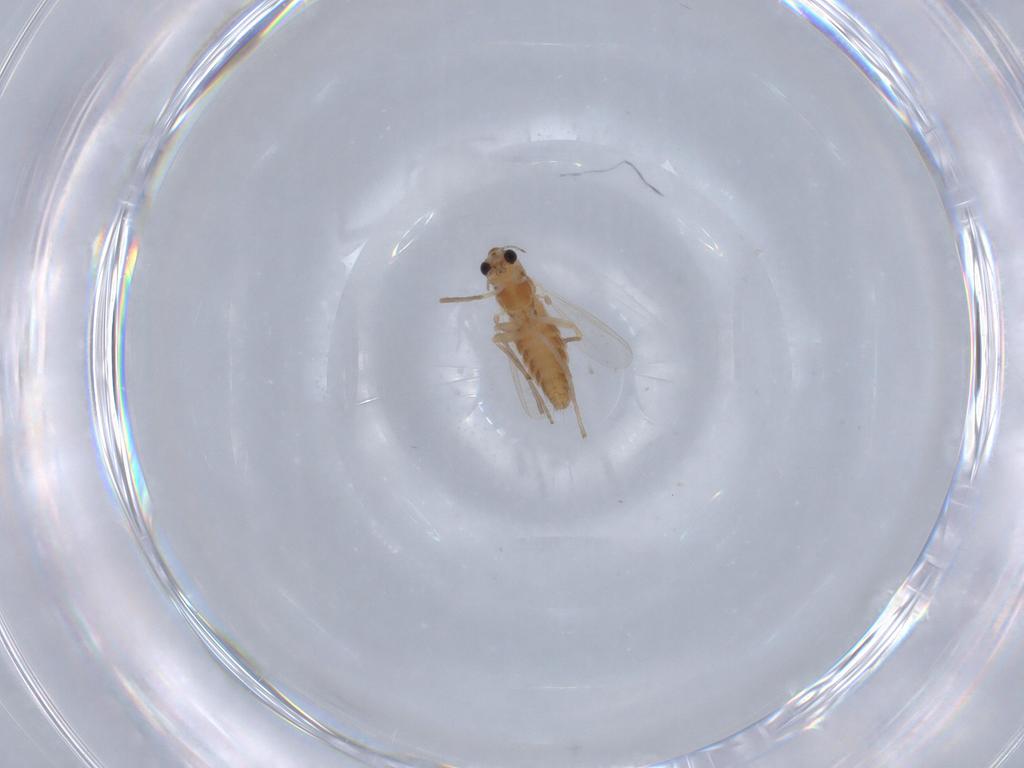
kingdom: Animalia
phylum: Arthropoda
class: Insecta
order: Diptera
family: Chironomidae
